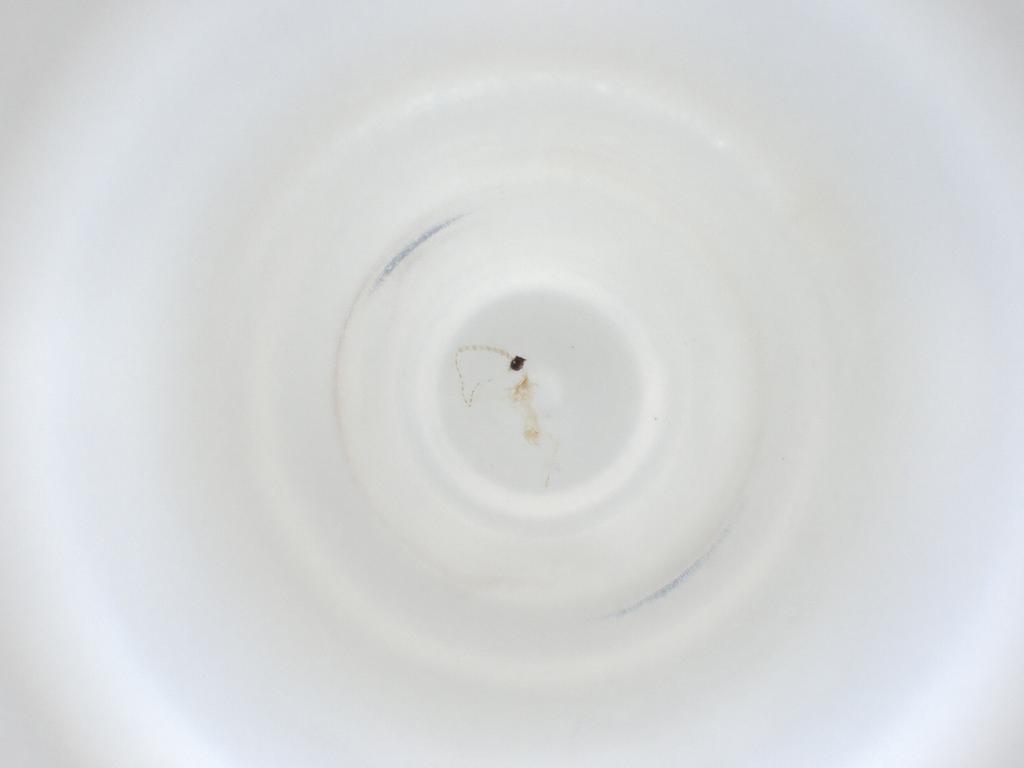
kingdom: Animalia
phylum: Arthropoda
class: Insecta
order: Diptera
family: Cecidomyiidae
